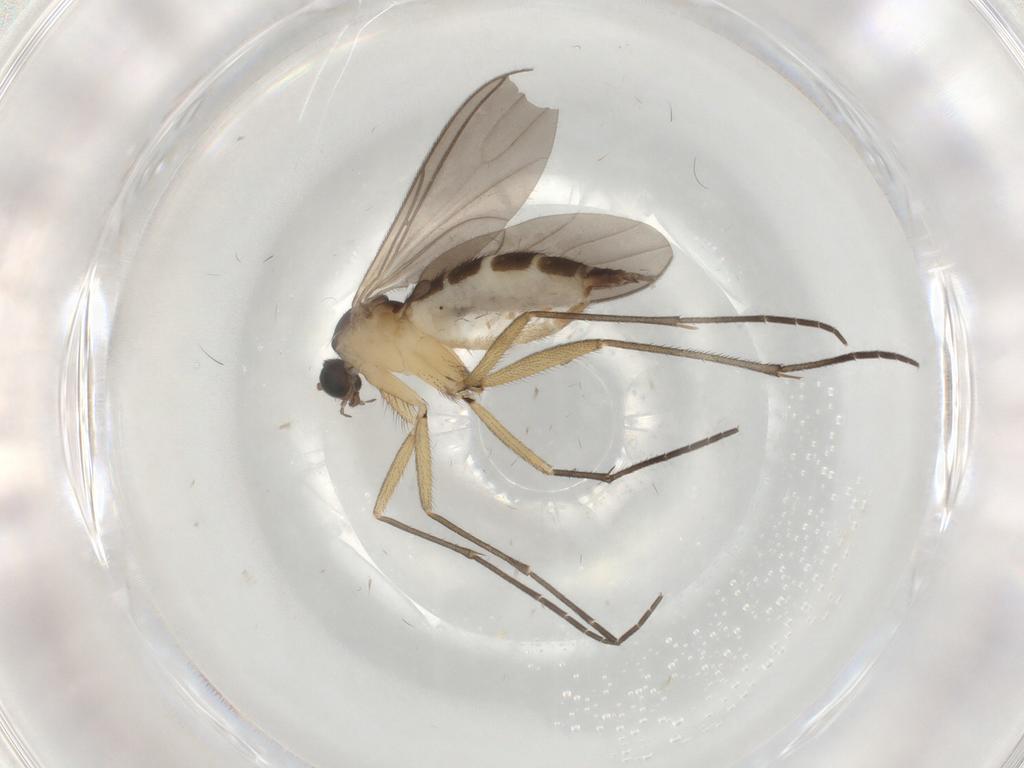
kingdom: Animalia
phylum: Arthropoda
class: Insecta
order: Diptera
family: Sciaridae
